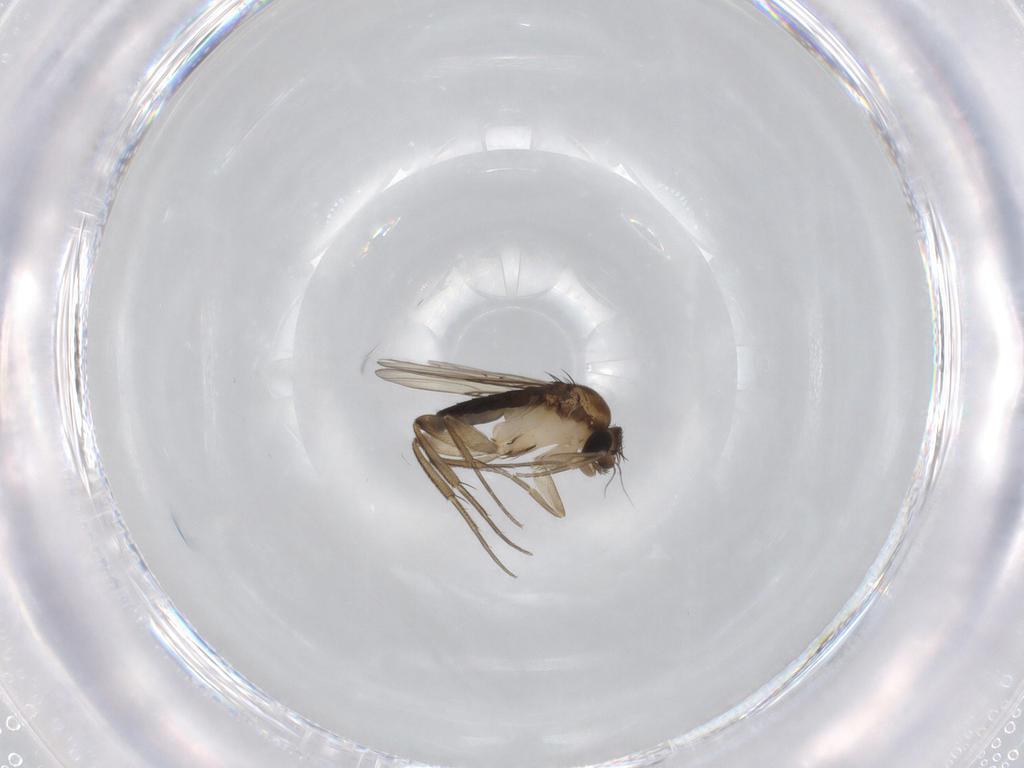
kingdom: Animalia
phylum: Arthropoda
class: Insecta
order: Diptera
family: Phoridae
